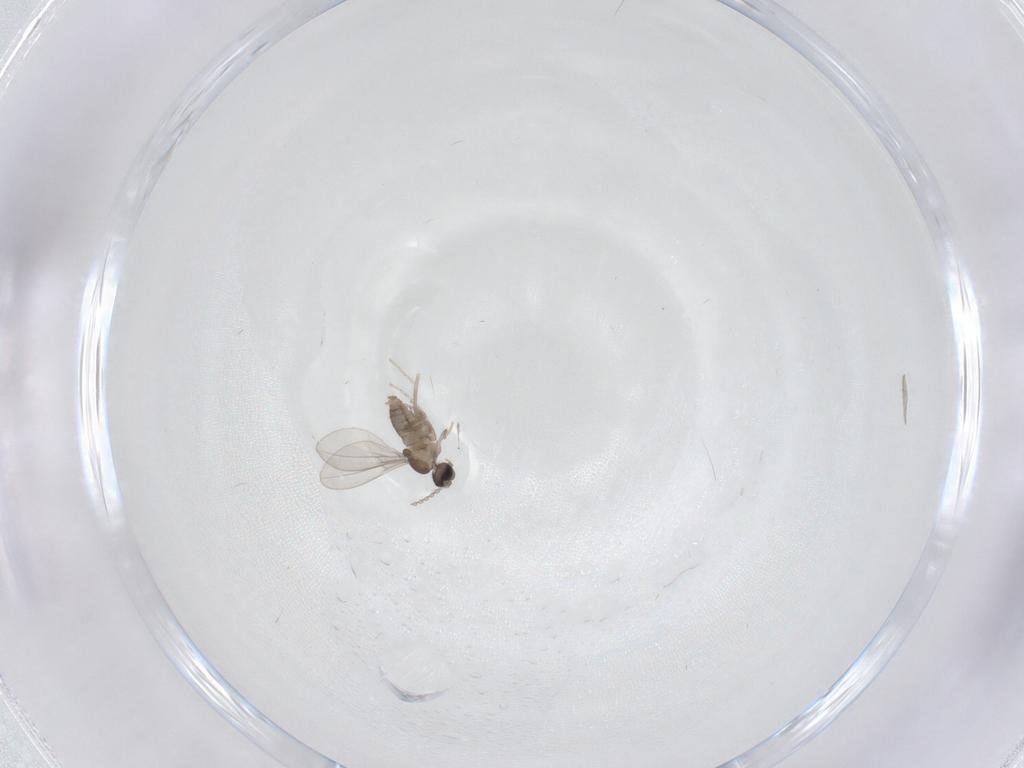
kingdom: Animalia
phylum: Arthropoda
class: Insecta
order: Diptera
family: Cecidomyiidae
